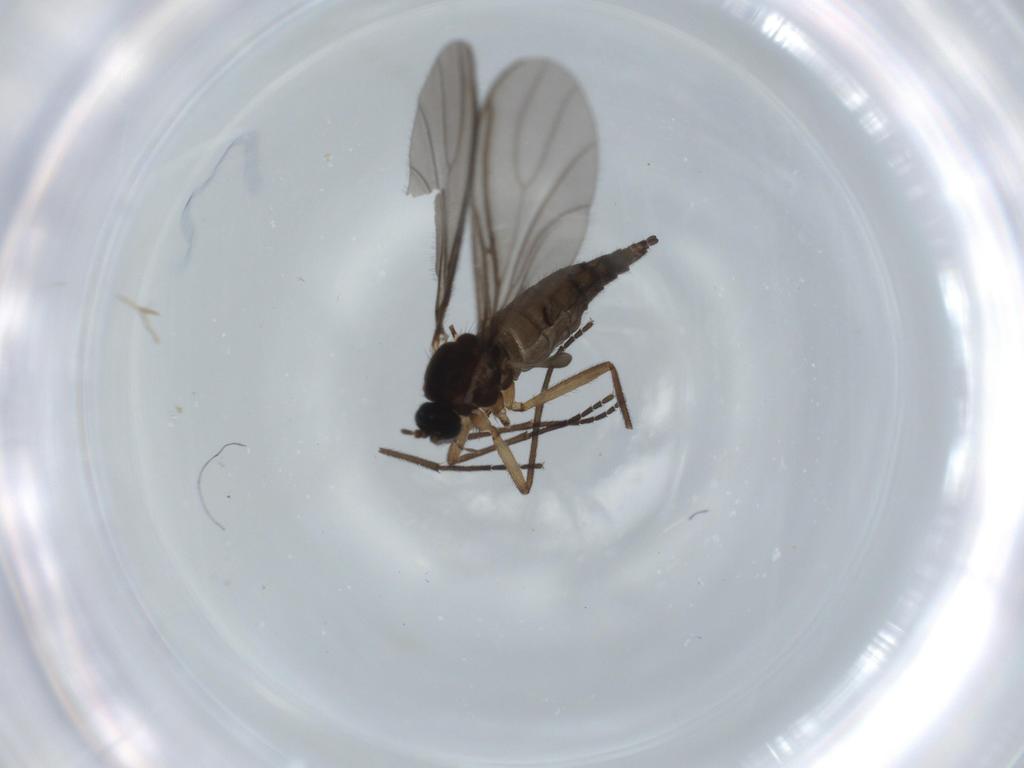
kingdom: Animalia
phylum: Arthropoda
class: Insecta
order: Diptera
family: Sciaridae
